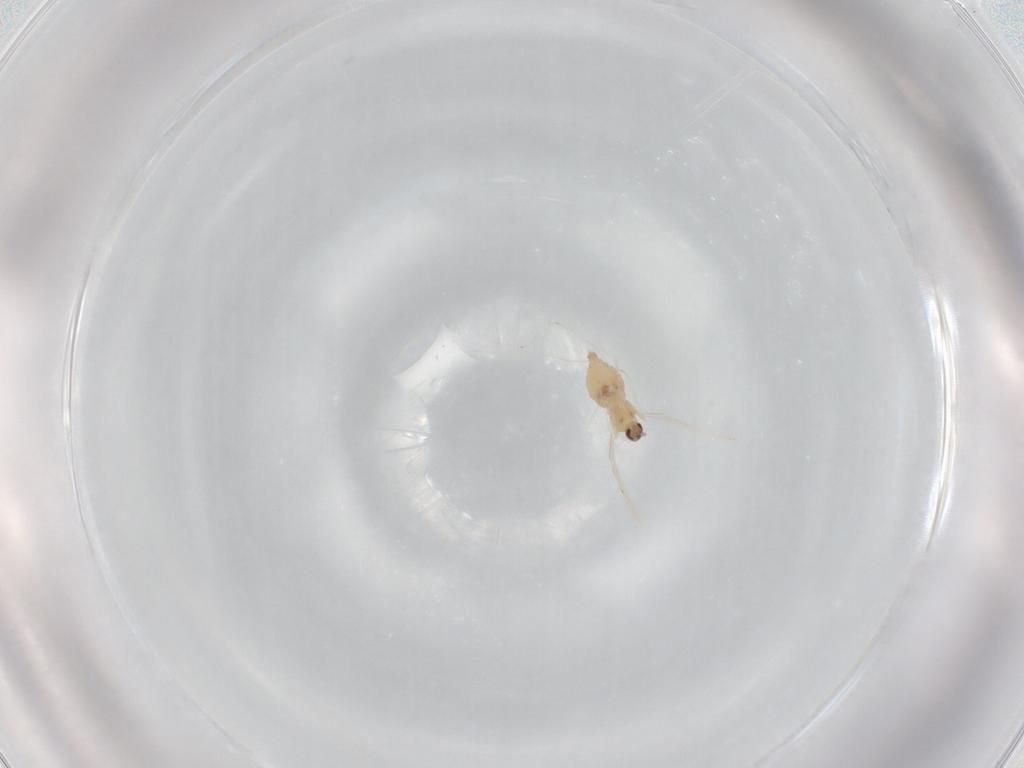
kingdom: Animalia
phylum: Arthropoda
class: Insecta
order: Diptera
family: Cecidomyiidae
